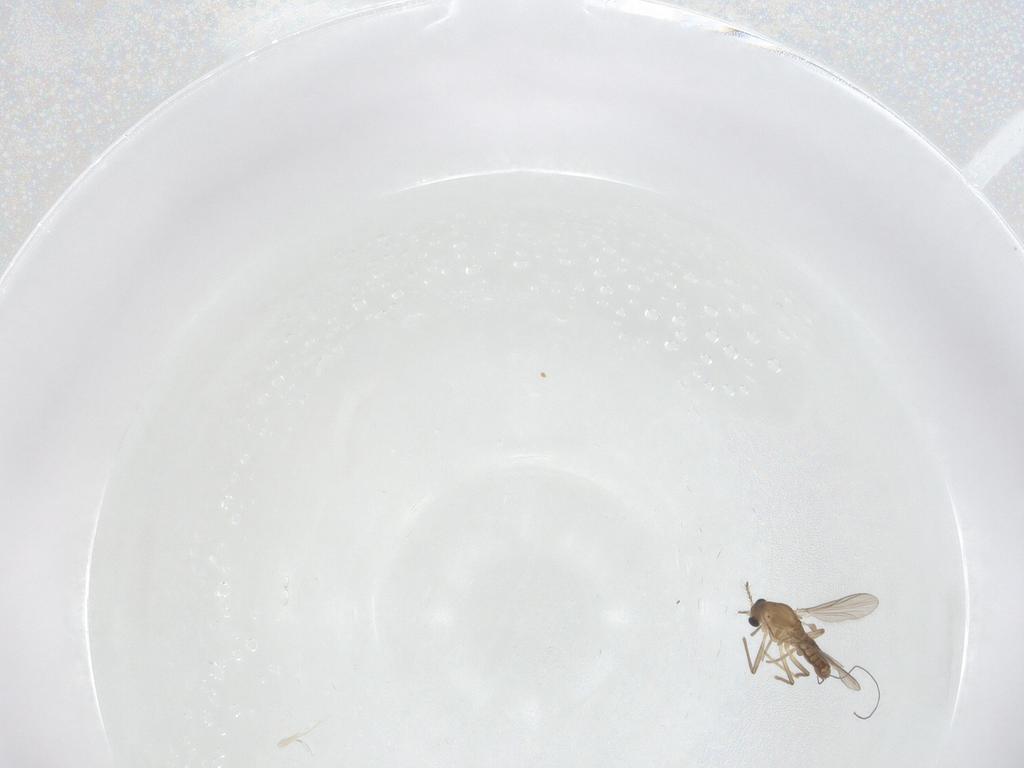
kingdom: Animalia
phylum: Arthropoda
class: Insecta
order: Diptera
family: Chironomidae
